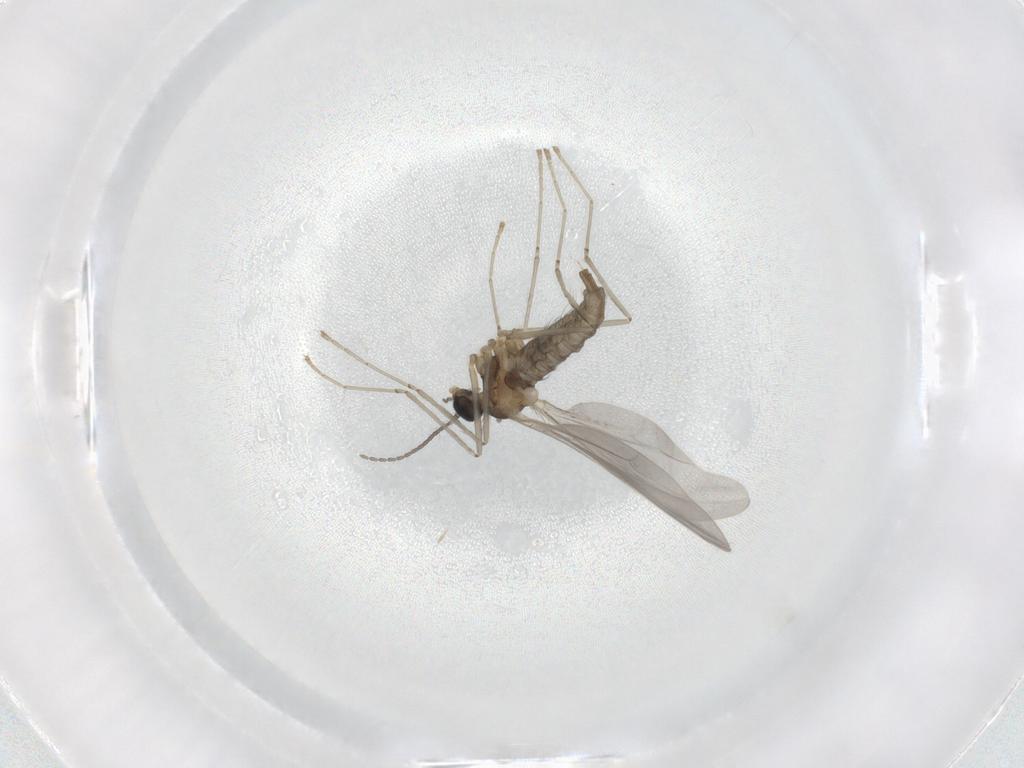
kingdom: Animalia
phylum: Arthropoda
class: Insecta
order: Diptera
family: Cecidomyiidae
